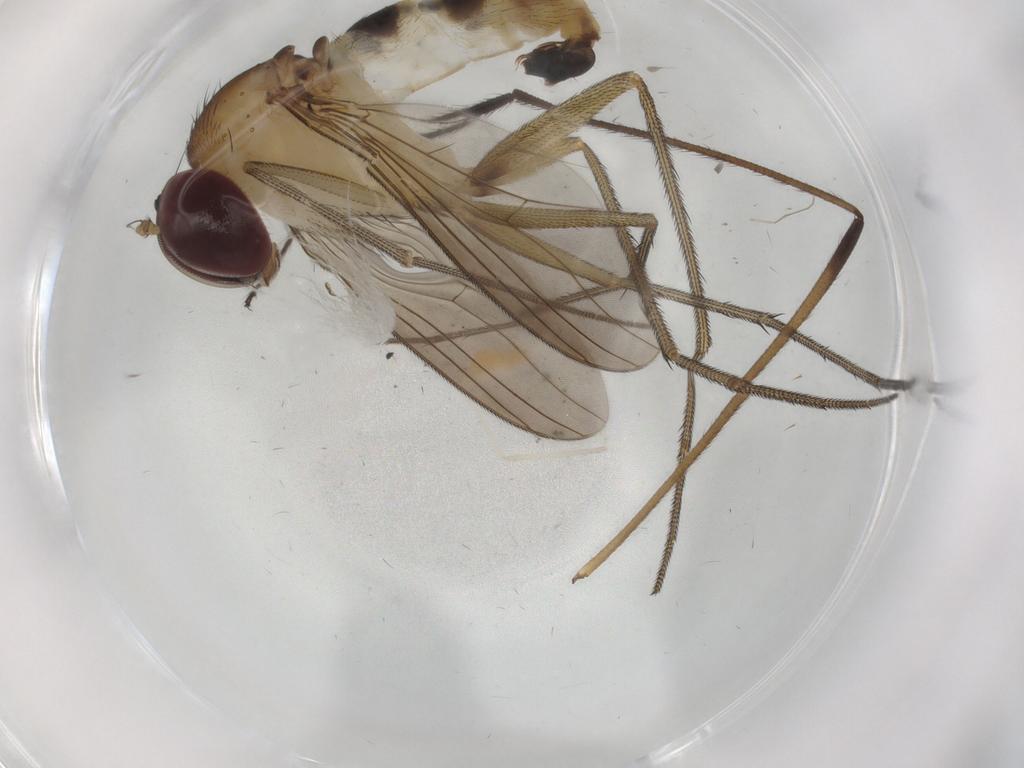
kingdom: Animalia
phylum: Arthropoda
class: Insecta
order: Diptera
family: Dolichopodidae
